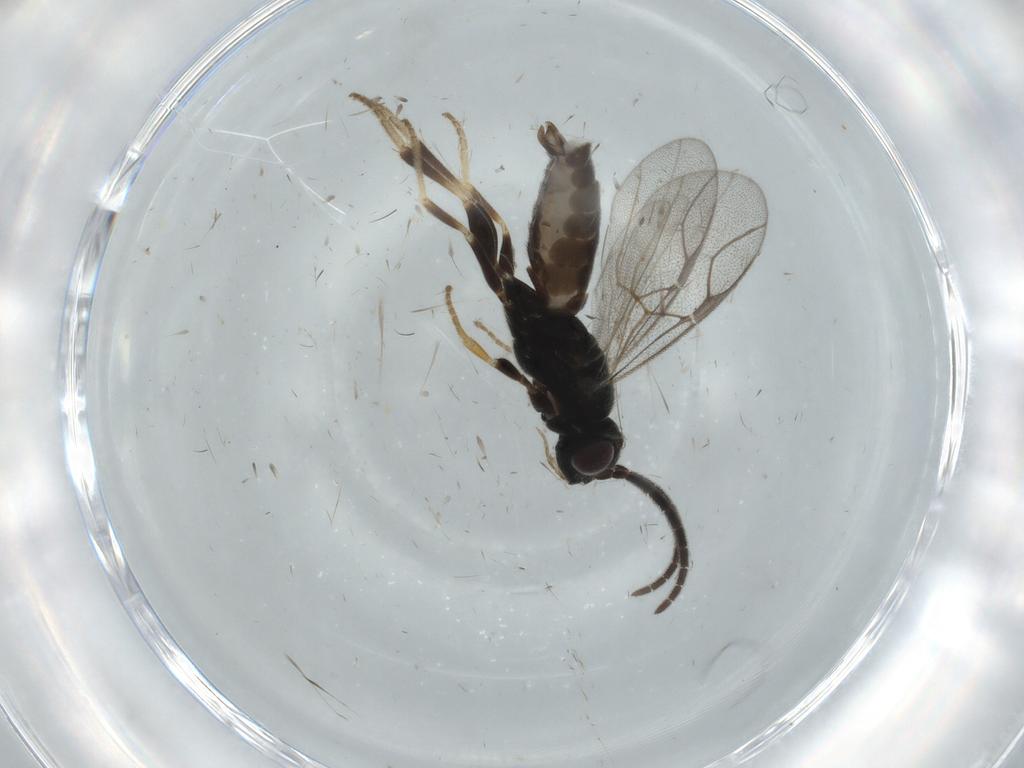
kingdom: Animalia
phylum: Arthropoda
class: Insecta
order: Hymenoptera
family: Dryinidae
